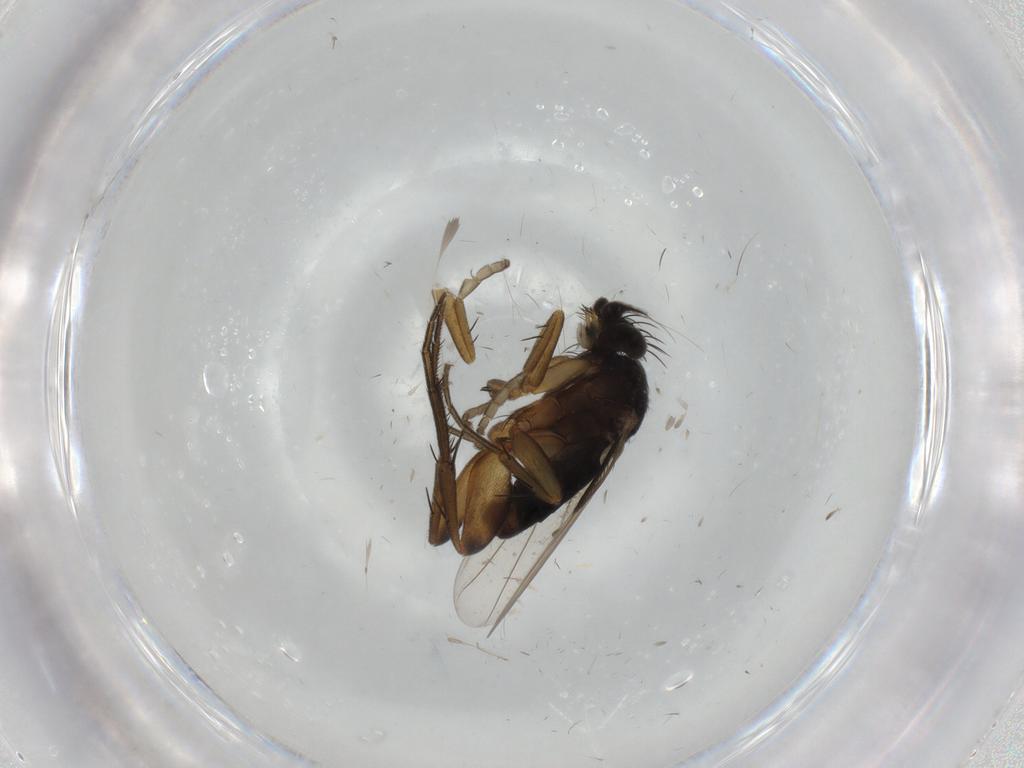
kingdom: Animalia
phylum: Arthropoda
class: Insecta
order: Diptera
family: Phoridae
